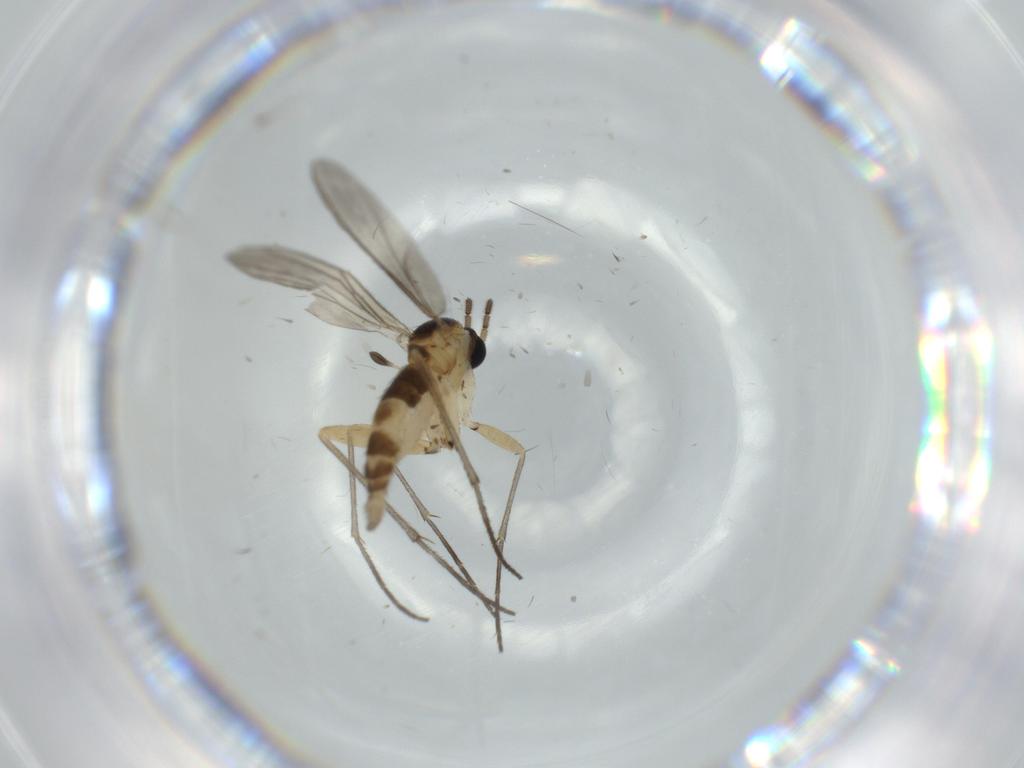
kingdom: Animalia
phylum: Arthropoda
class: Insecta
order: Diptera
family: Sciaridae
